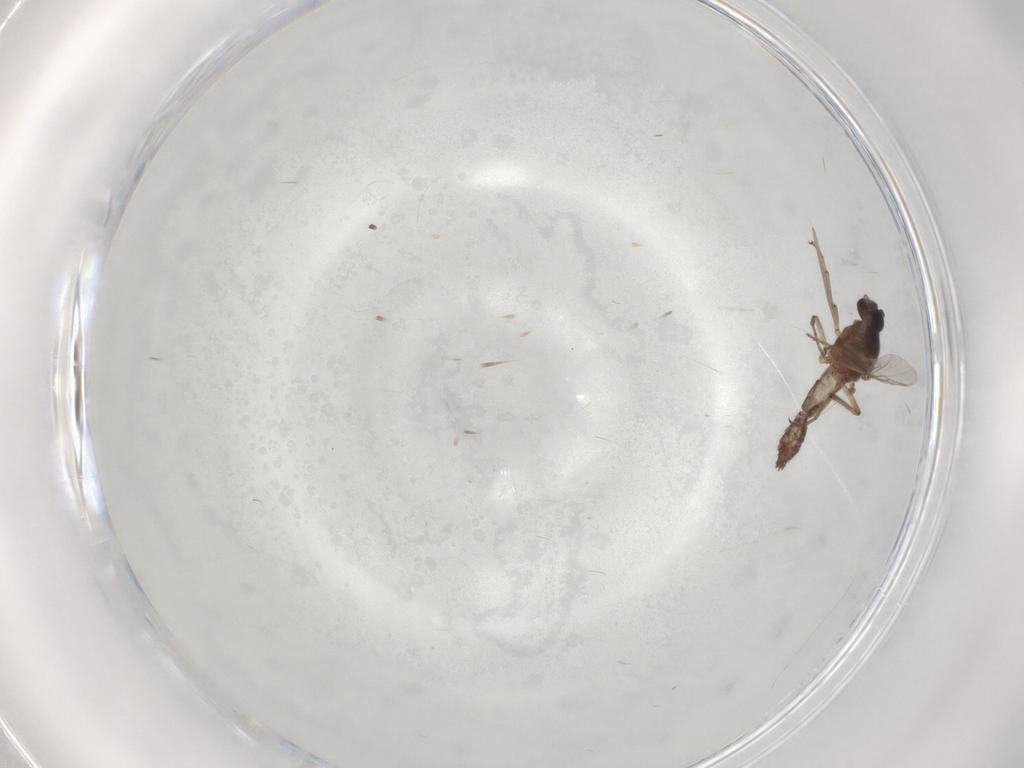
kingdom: Animalia
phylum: Arthropoda
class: Insecta
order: Diptera
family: Ceratopogonidae
